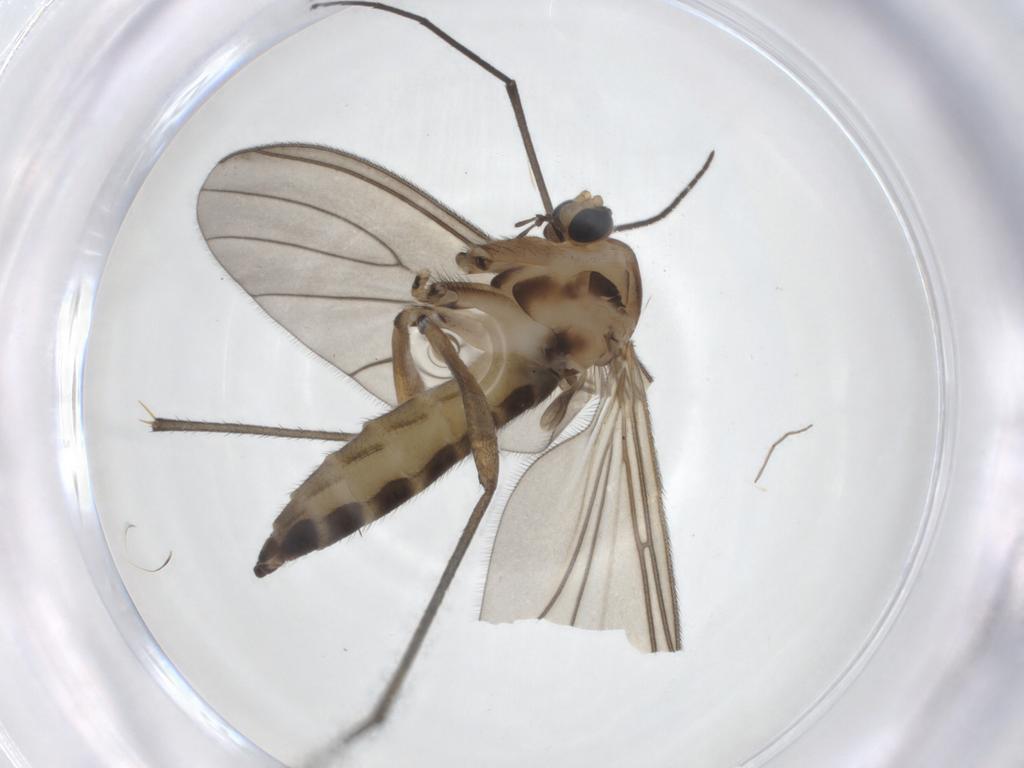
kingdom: Animalia
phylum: Arthropoda
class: Insecta
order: Diptera
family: Sciaridae
